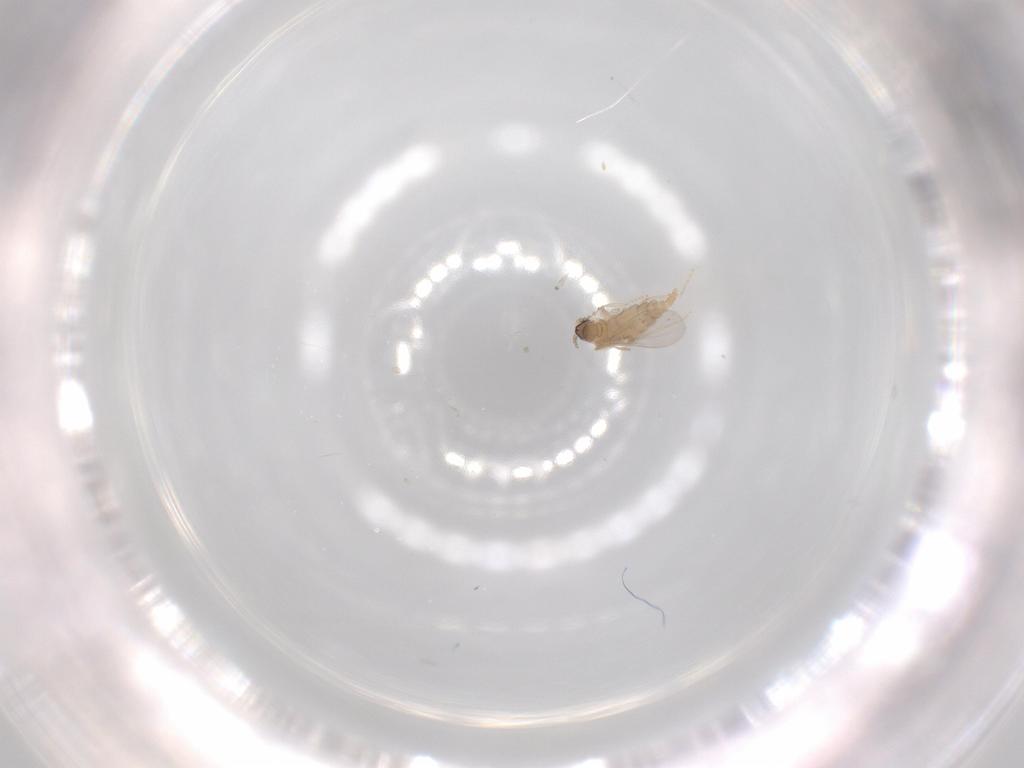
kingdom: Animalia
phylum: Arthropoda
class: Insecta
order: Diptera
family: Cecidomyiidae
